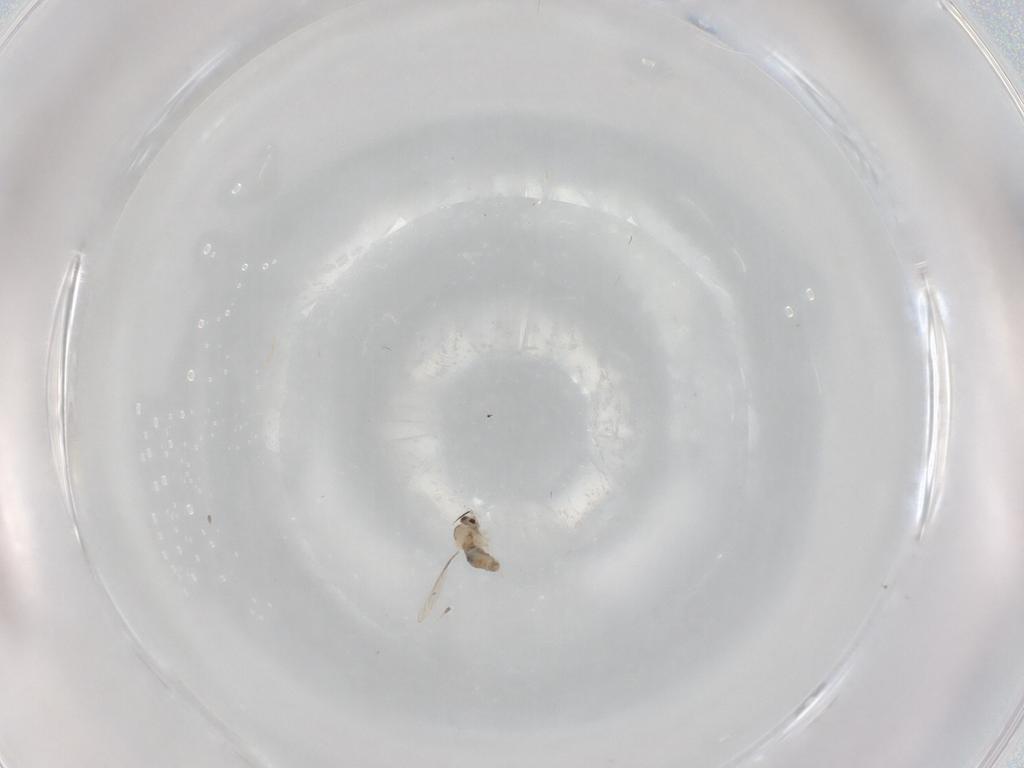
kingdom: Animalia
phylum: Arthropoda
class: Insecta
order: Diptera
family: Cecidomyiidae
